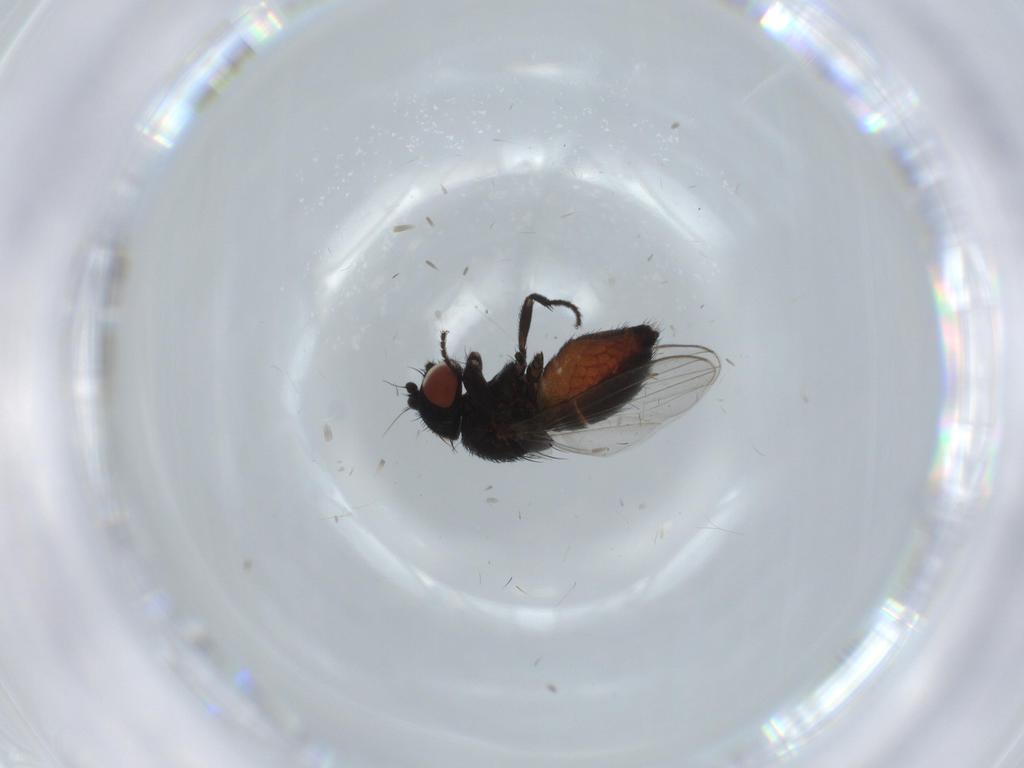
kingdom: Animalia
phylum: Arthropoda
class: Insecta
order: Diptera
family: Milichiidae
